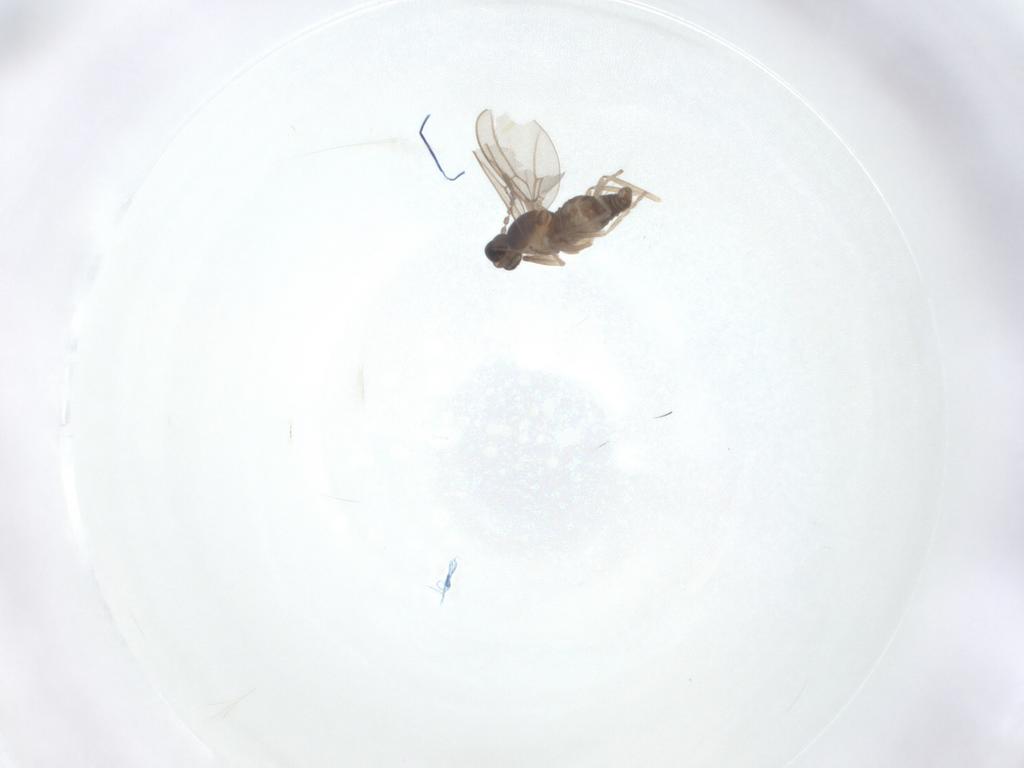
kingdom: Animalia
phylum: Arthropoda
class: Insecta
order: Diptera
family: Cecidomyiidae
